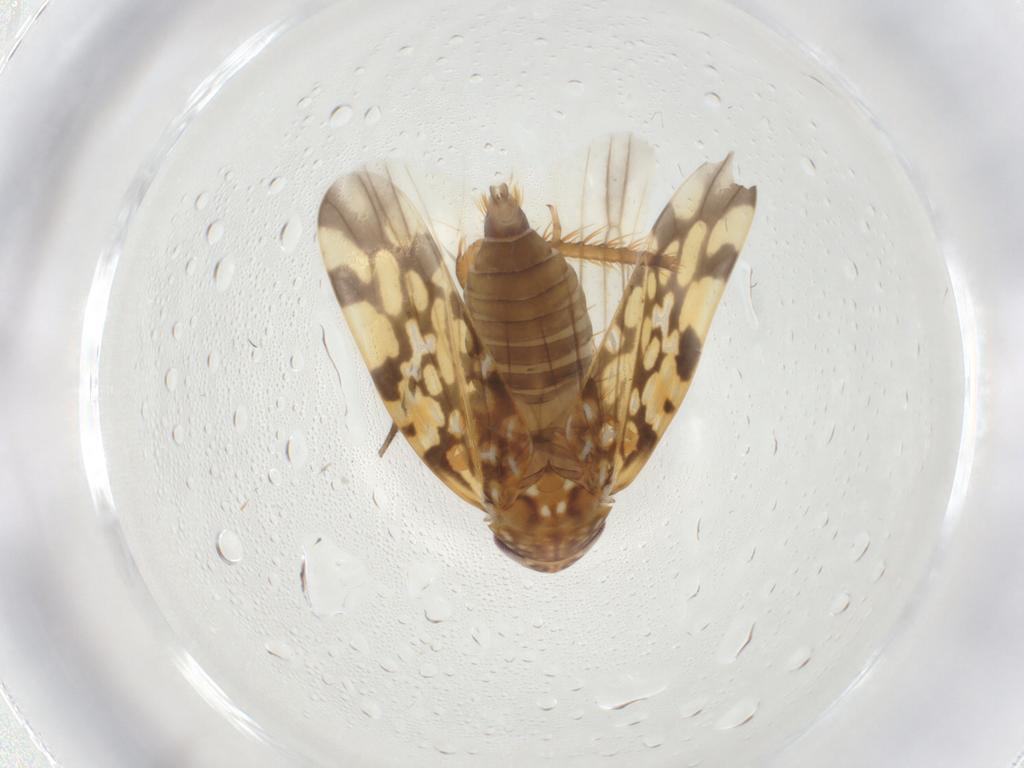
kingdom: Animalia
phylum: Arthropoda
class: Insecta
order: Hemiptera
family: Cicadellidae
